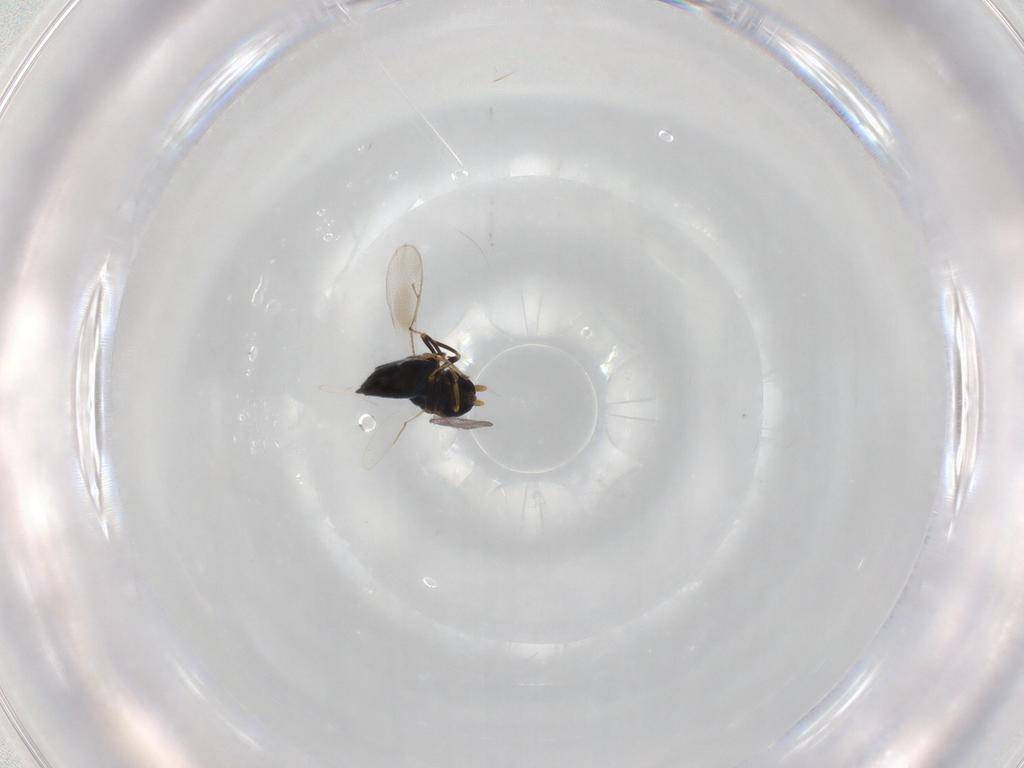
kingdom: Animalia
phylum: Arthropoda
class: Insecta
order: Hymenoptera
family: Pteromalidae
